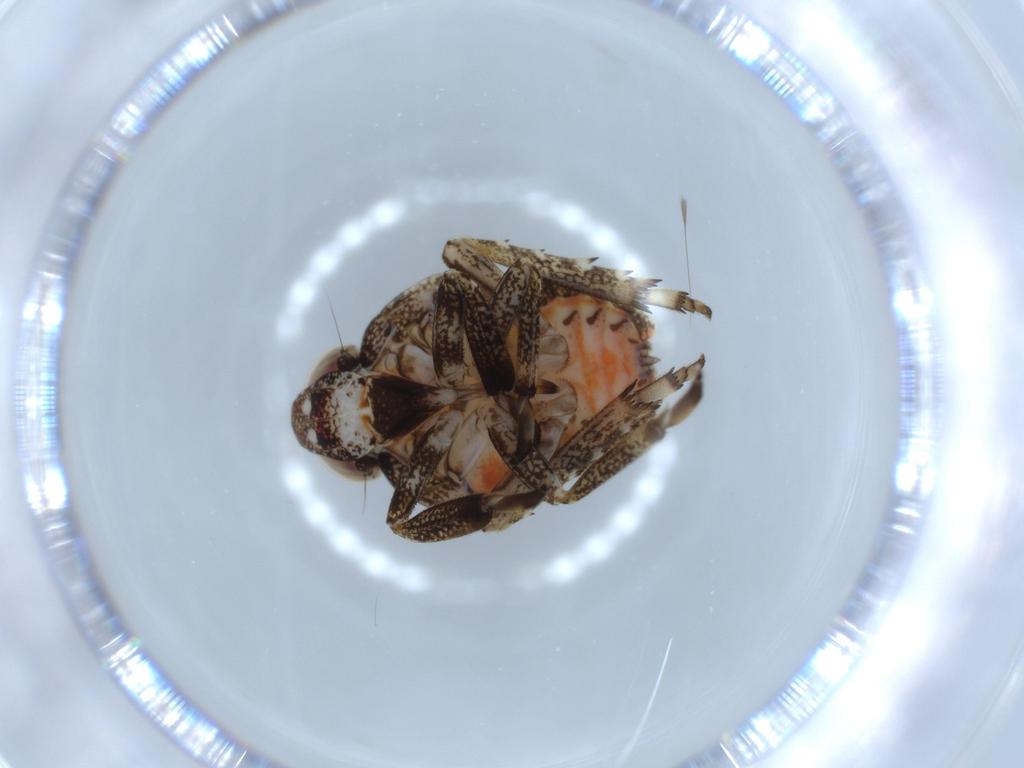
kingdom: Animalia
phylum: Arthropoda
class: Insecta
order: Hemiptera
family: Issidae
